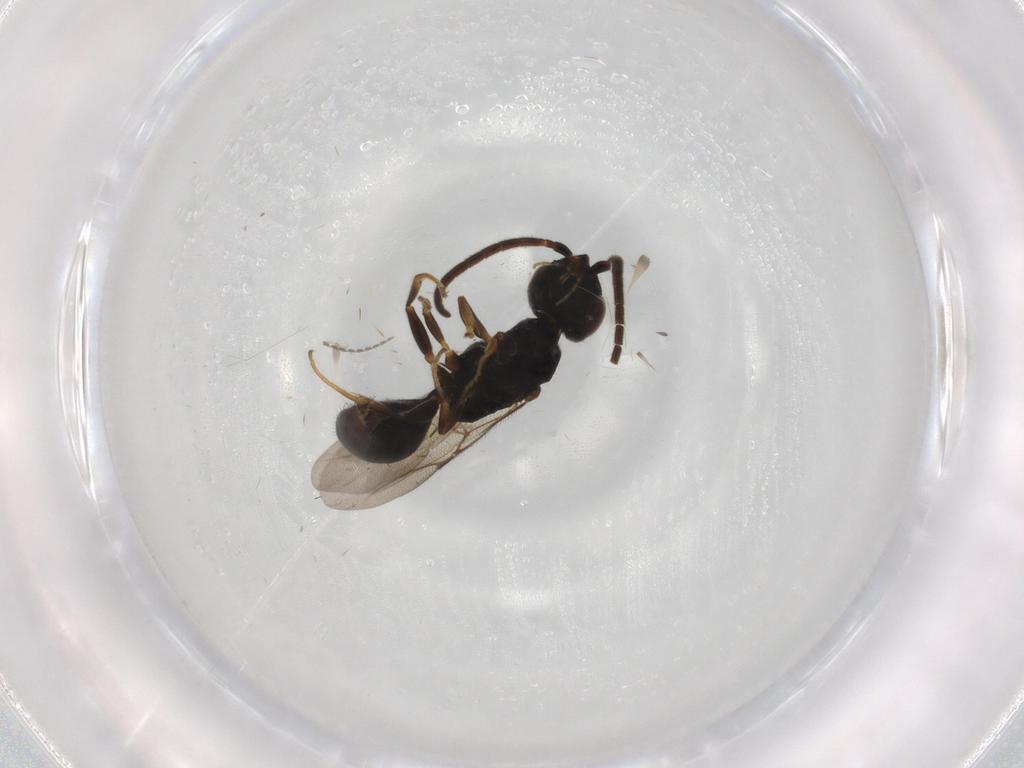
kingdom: Animalia
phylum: Arthropoda
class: Insecta
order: Hymenoptera
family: Bethylidae
